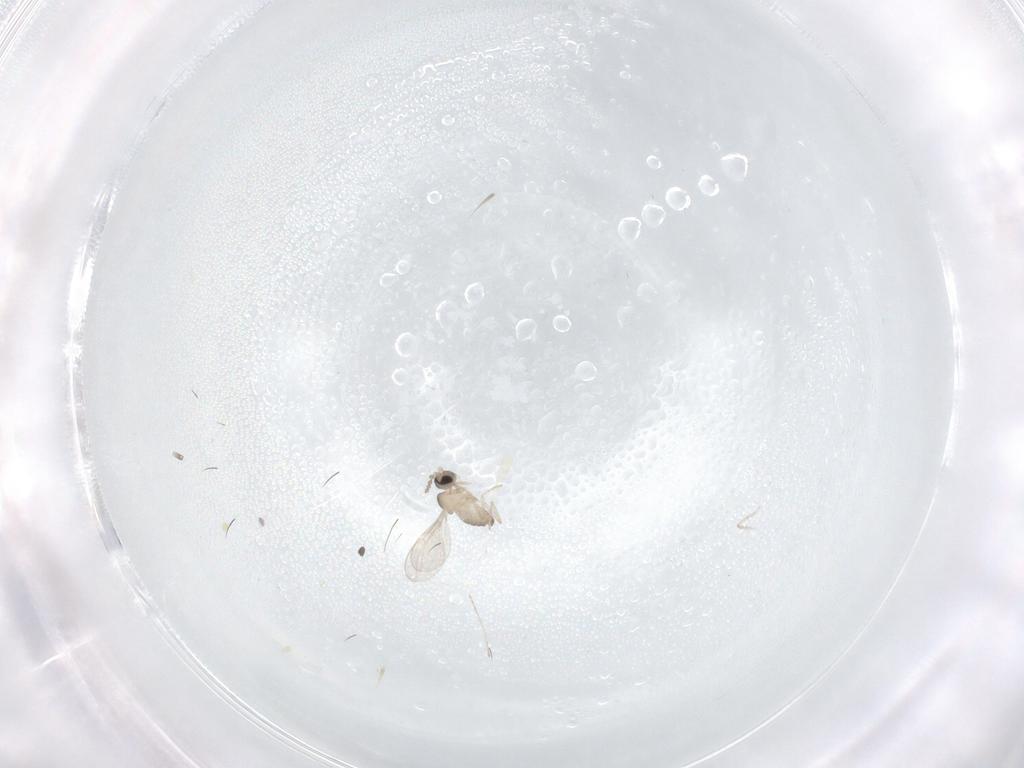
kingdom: Animalia
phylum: Arthropoda
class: Insecta
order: Diptera
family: Cecidomyiidae
